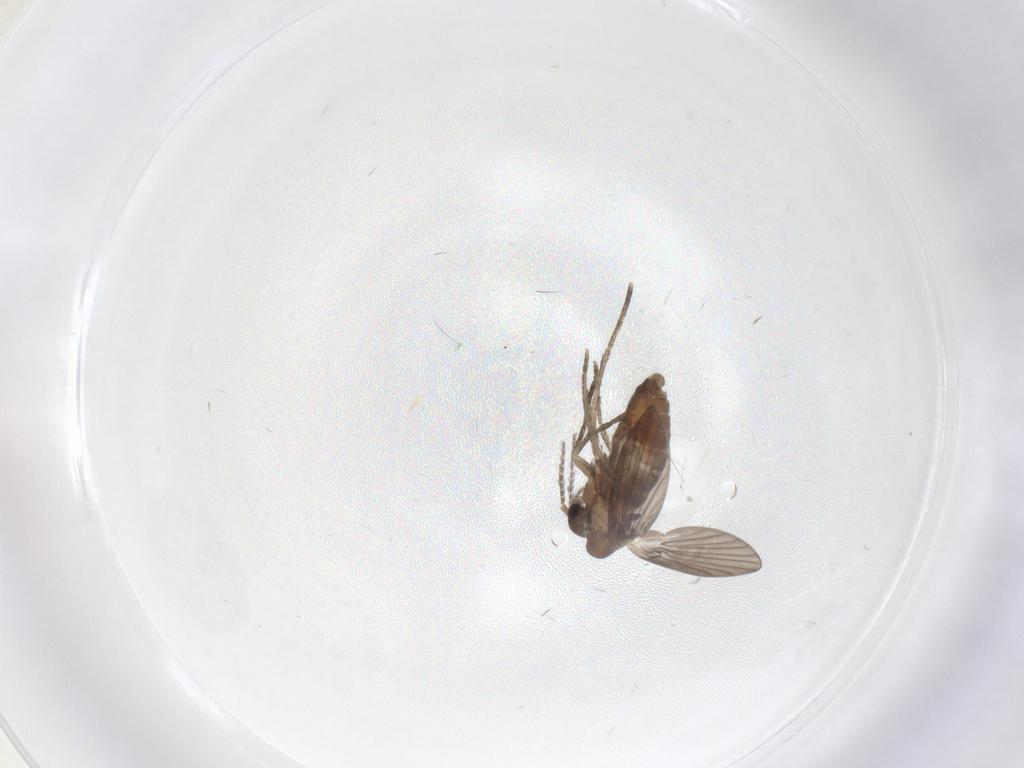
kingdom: Animalia
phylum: Arthropoda
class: Insecta
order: Diptera
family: Psychodidae
